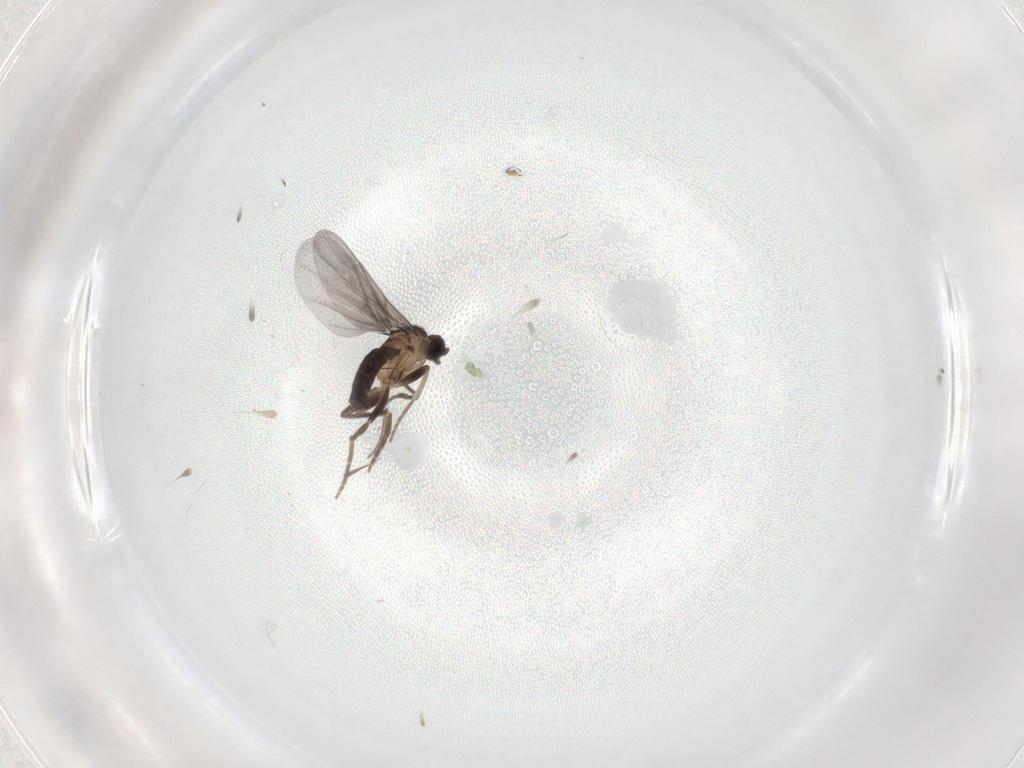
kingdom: Animalia
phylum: Arthropoda
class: Insecta
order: Diptera
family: Phoridae
